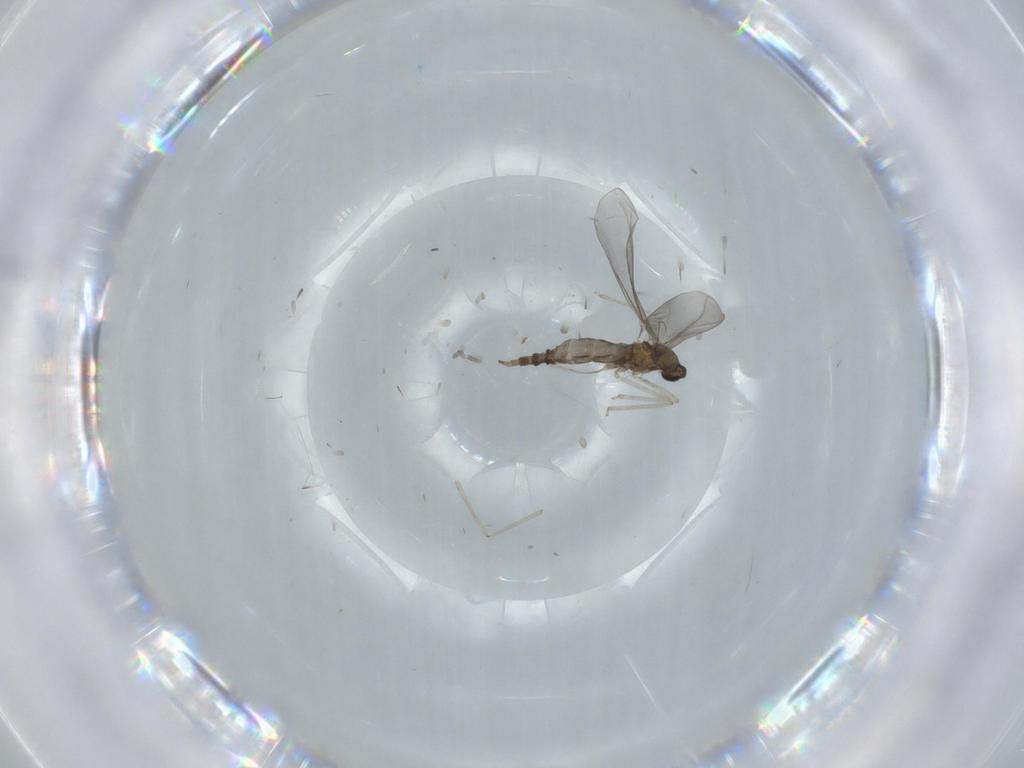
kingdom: Animalia
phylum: Arthropoda
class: Insecta
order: Diptera
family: Cecidomyiidae
